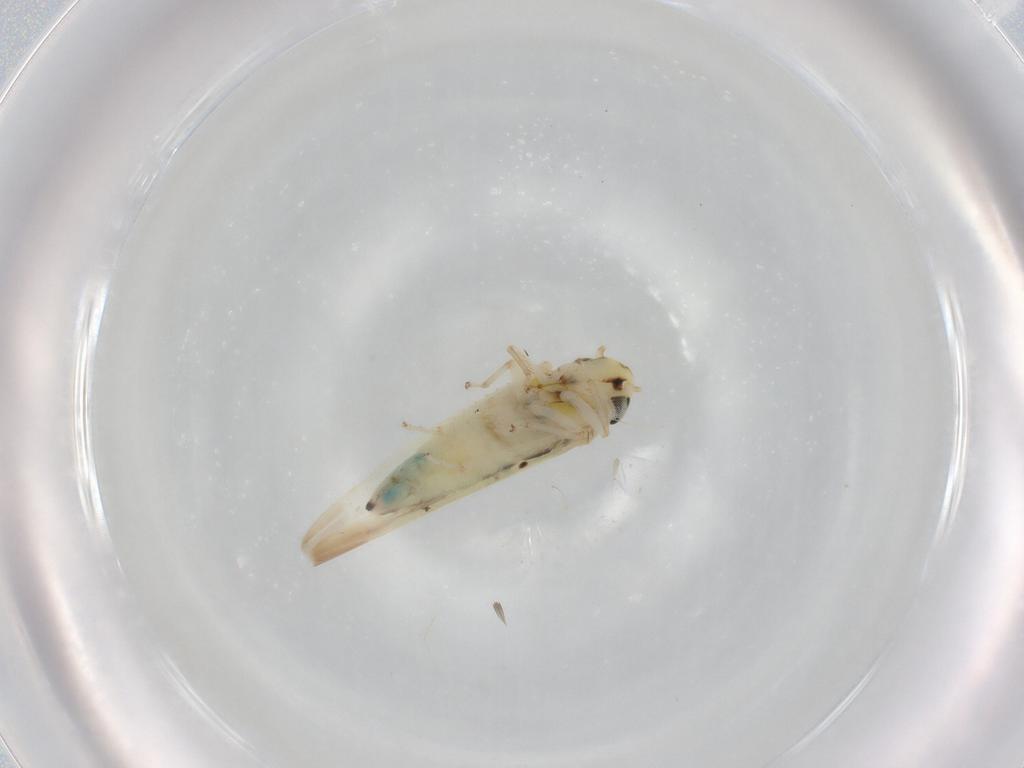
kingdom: Animalia
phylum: Arthropoda
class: Insecta
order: Hemiptera
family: Cicadellidae
